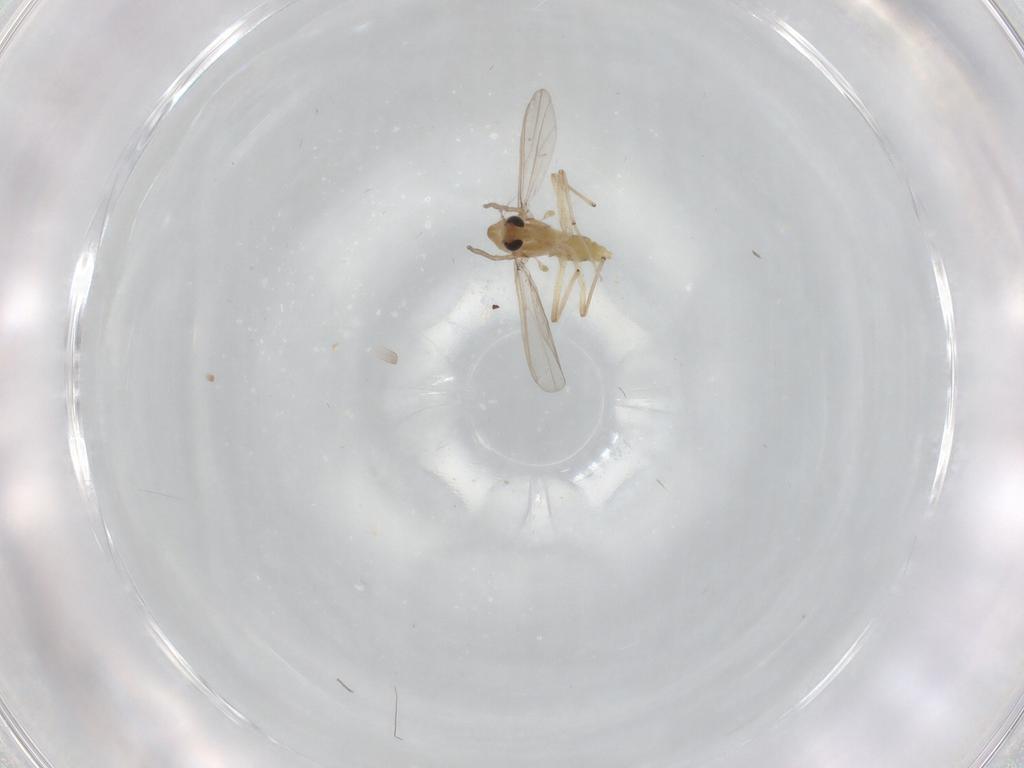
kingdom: Animalia
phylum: Arthropoda
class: Insecta
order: Diptera
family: Chironomidae
